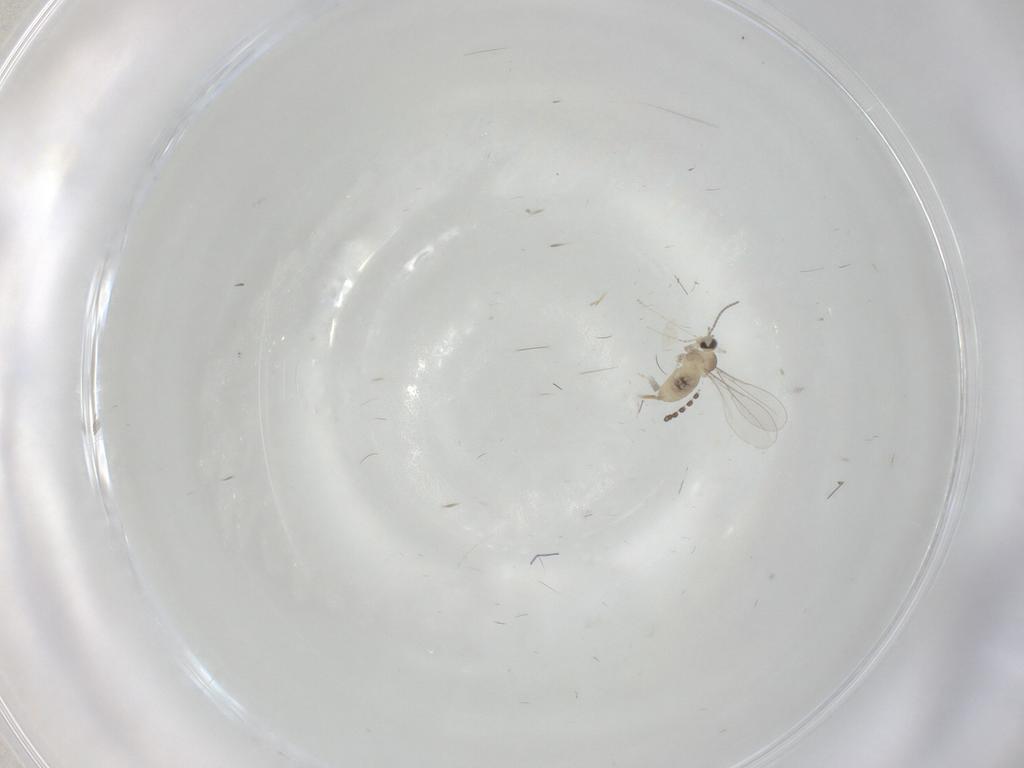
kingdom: Animalia
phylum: Arthropoda
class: Insecta
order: Diptera
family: Cecidomyiidae
